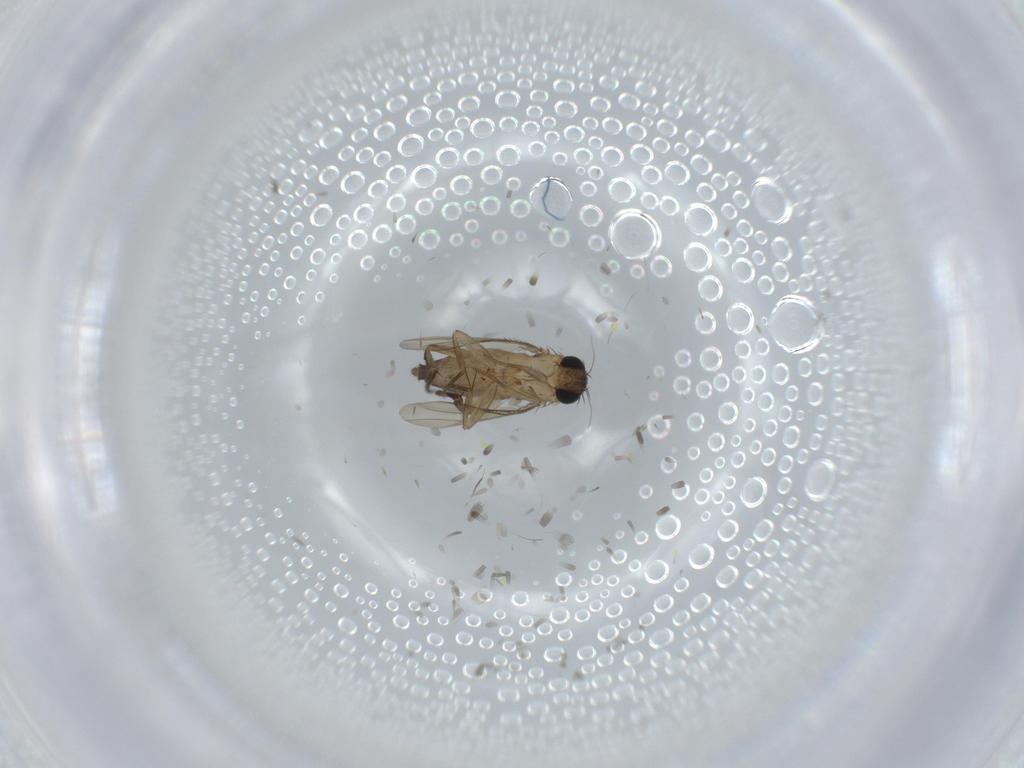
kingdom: Animalia
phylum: Arthropoda
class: Insecta
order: Diptera
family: Phoridae
